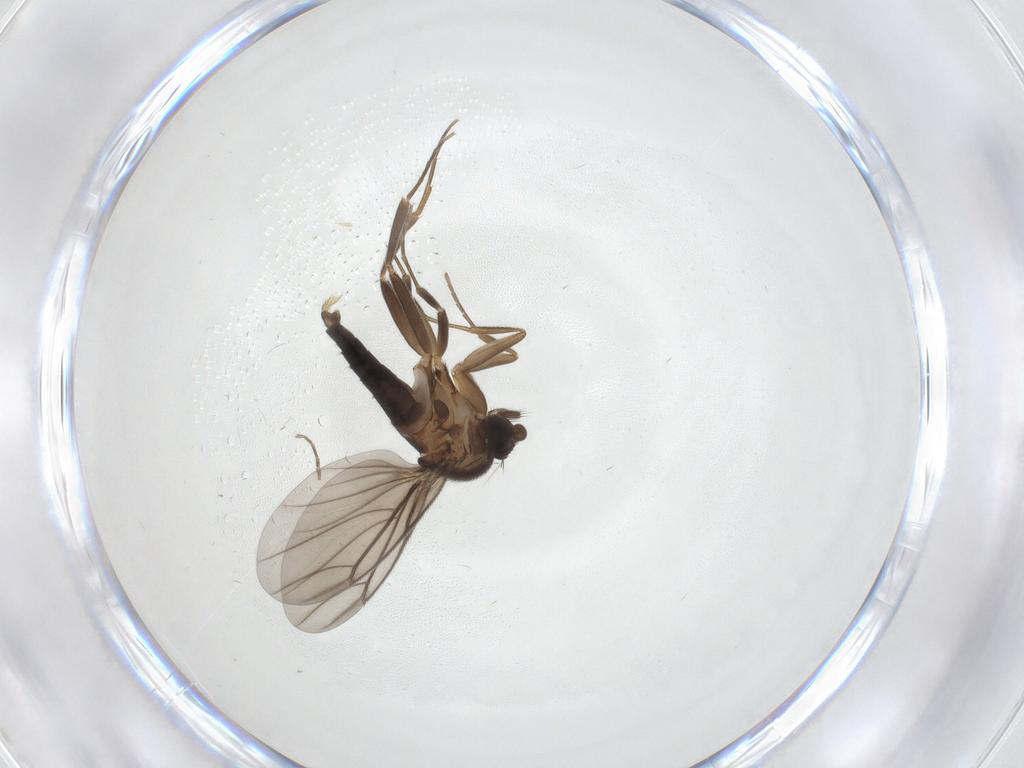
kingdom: Animalia
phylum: Arthropoda
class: Insecta
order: Diptera
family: Phoridae
